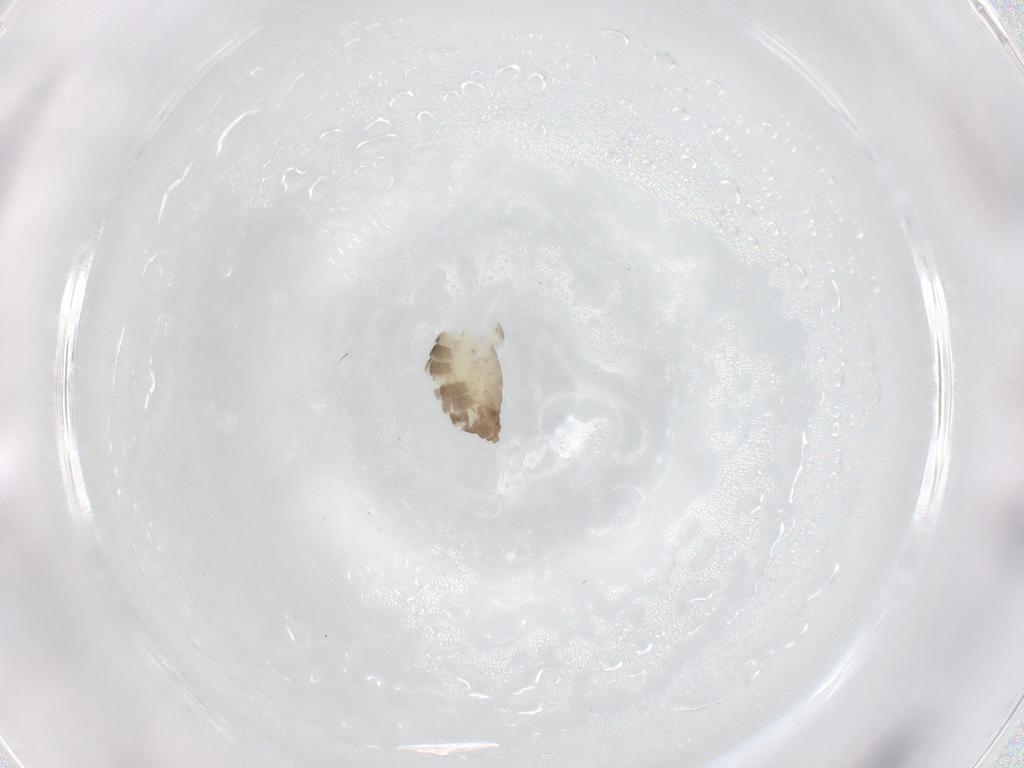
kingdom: Animalia
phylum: Arthropoda
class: Insecta
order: Diptera
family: Chironomidae
